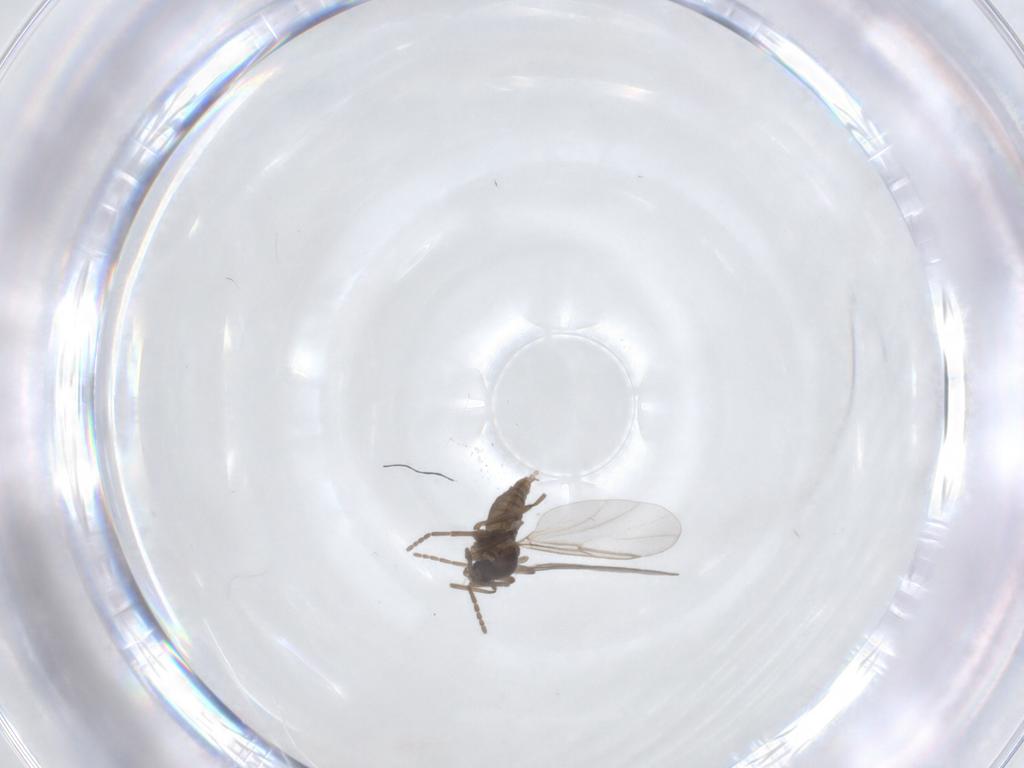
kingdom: Animalia
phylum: Arthropoda
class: Insecta
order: Diptera
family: Cecidomyiidae
